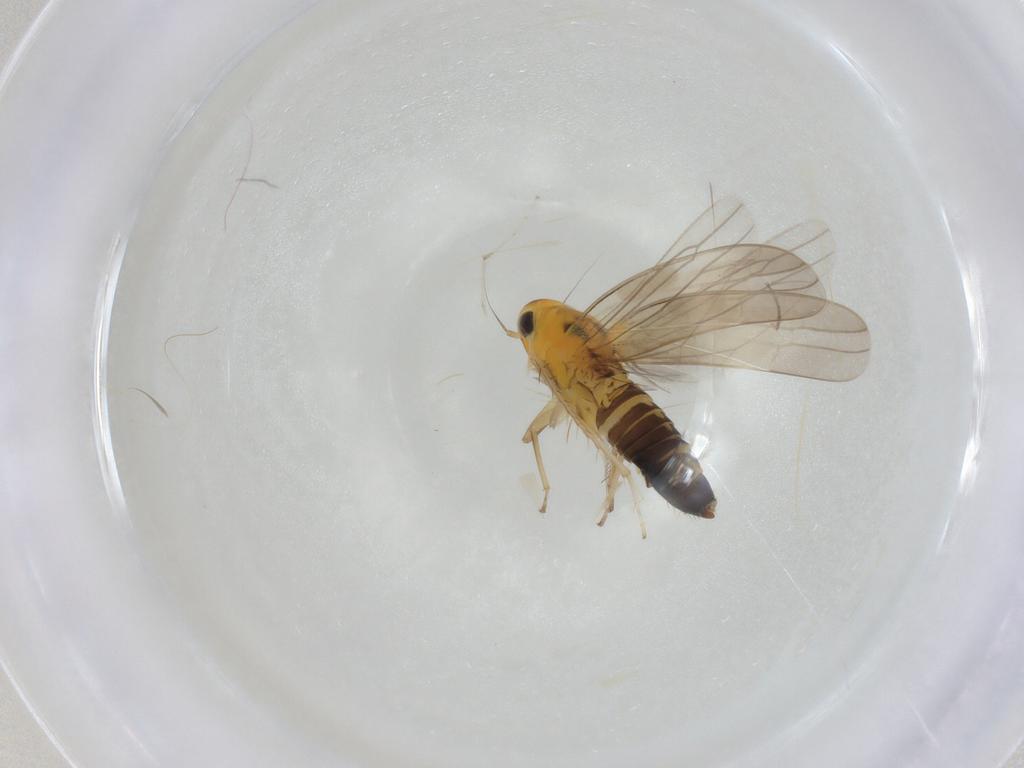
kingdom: Animalia
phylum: Arthropoda
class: Insecta
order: Hemiptera
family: Cicadellidae
